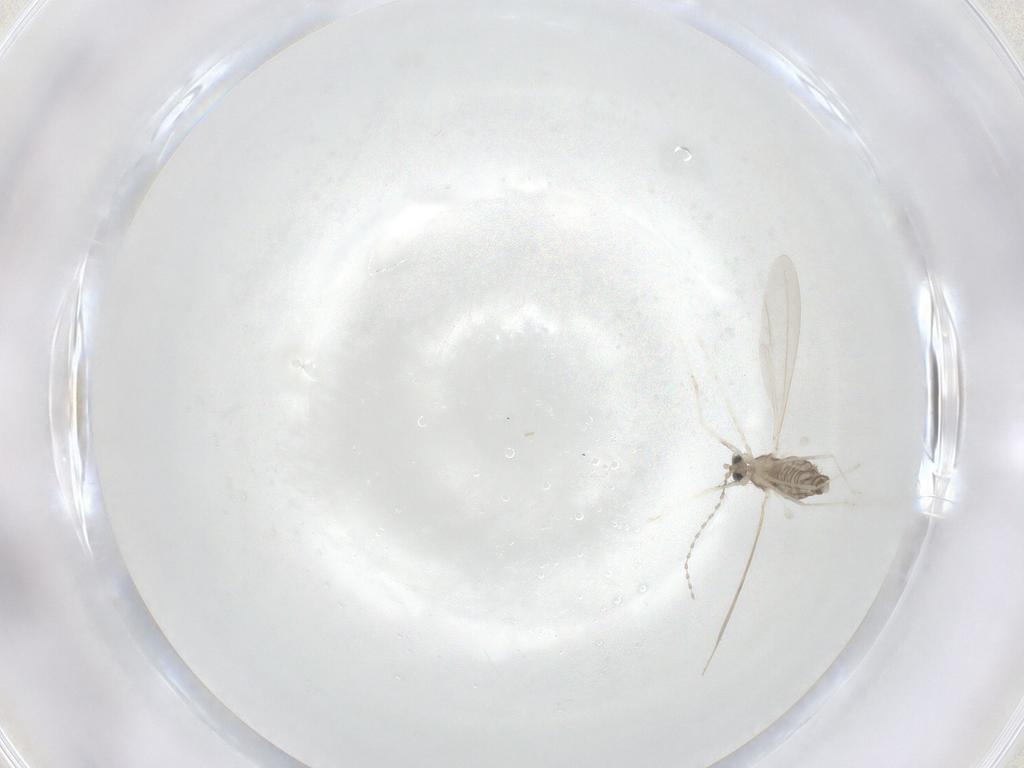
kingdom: Animalia
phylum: Arthropoda
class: Insecta
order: Diptera
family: Cecidomyiidae
